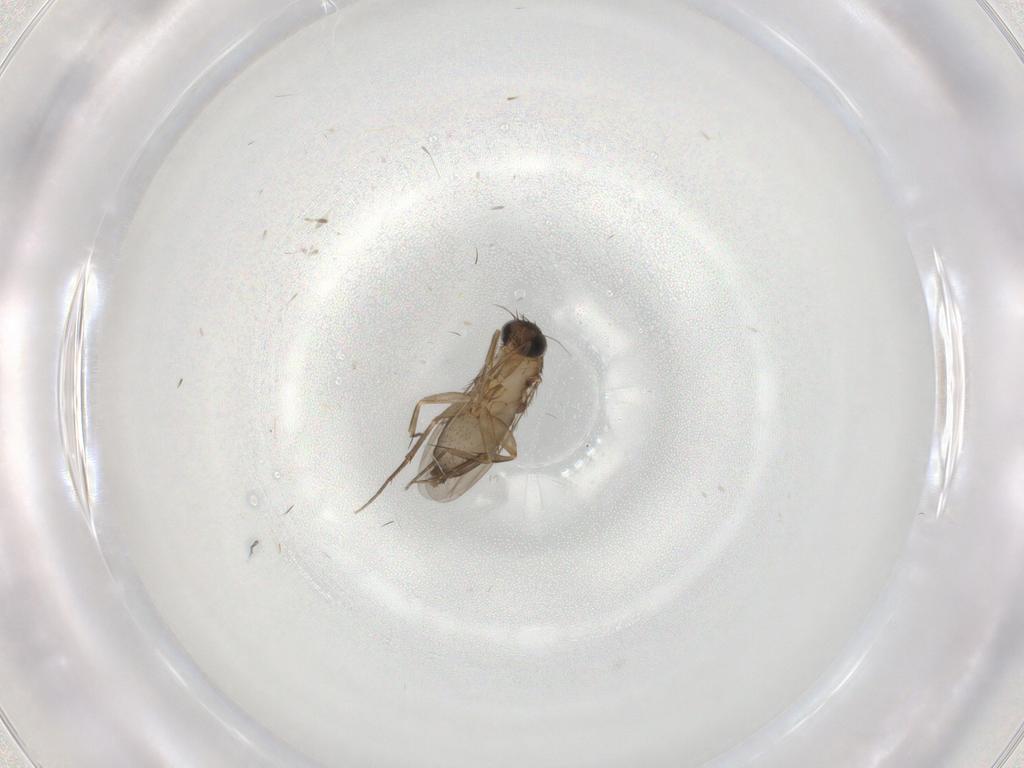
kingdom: Animalia
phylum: Arthropoda
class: Insecta
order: Diptera
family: Phoridae
